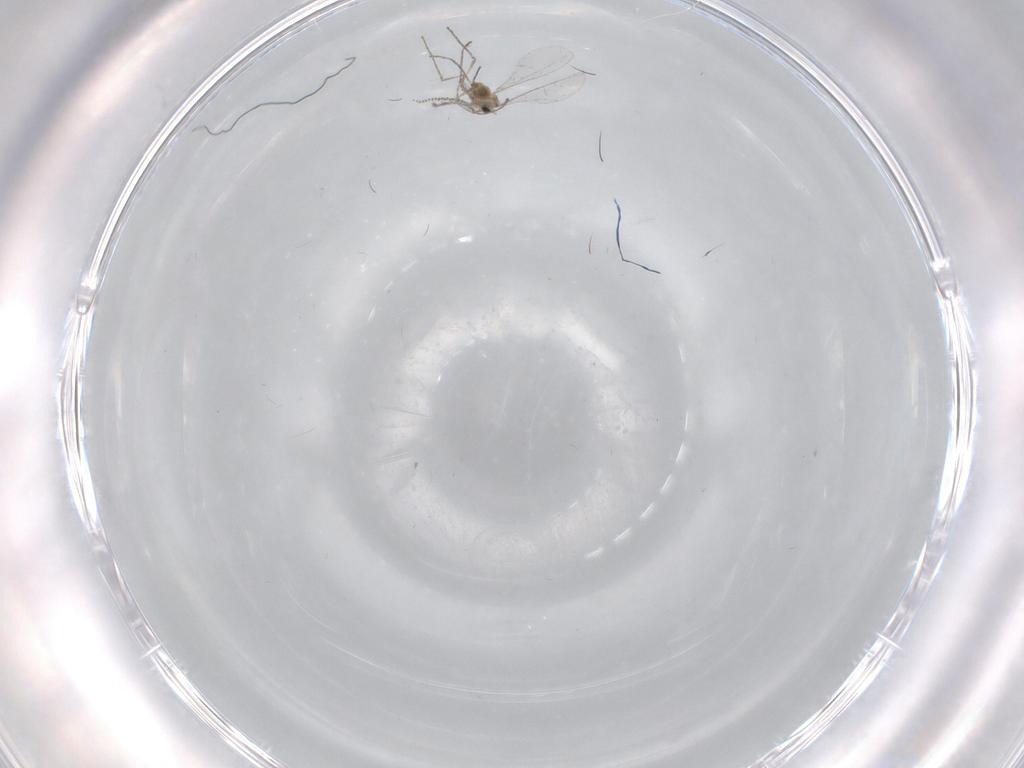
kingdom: Animalia
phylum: Arthropoda
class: Insecta
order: Diptera
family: Cecidomyiidae
